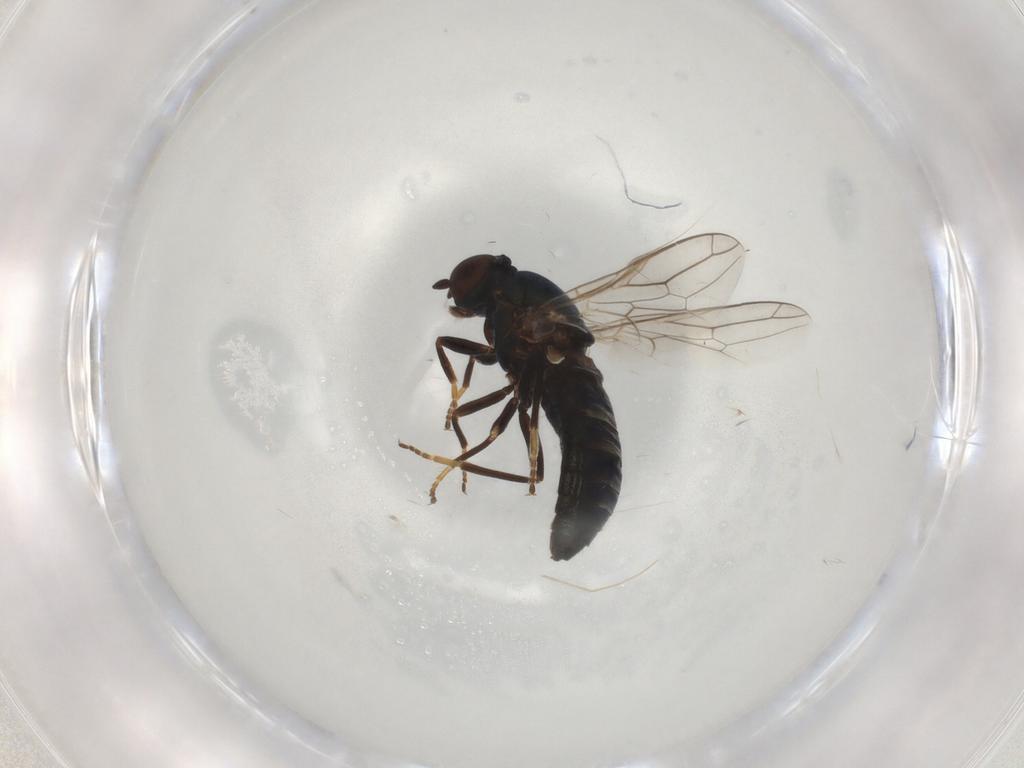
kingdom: Animalia
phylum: Arthropoda
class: Insecta
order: Diptera
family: Scenopinidae
